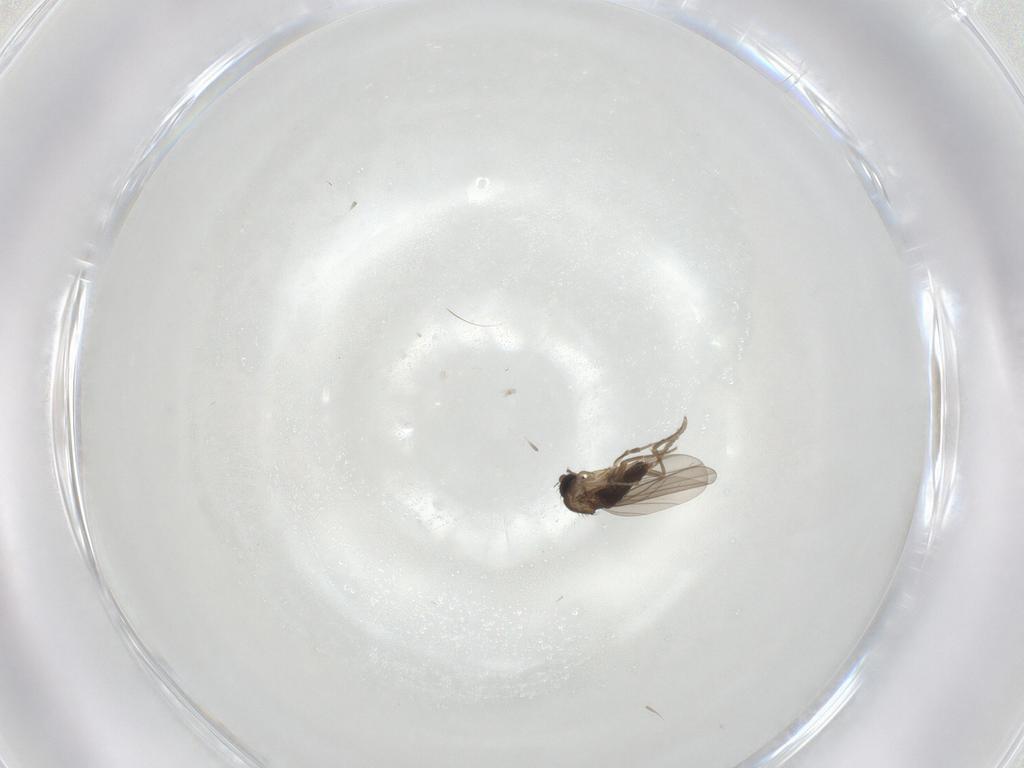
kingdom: Animalia
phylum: Arthropoda
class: Insecta
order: Diptera
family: Phoridae
